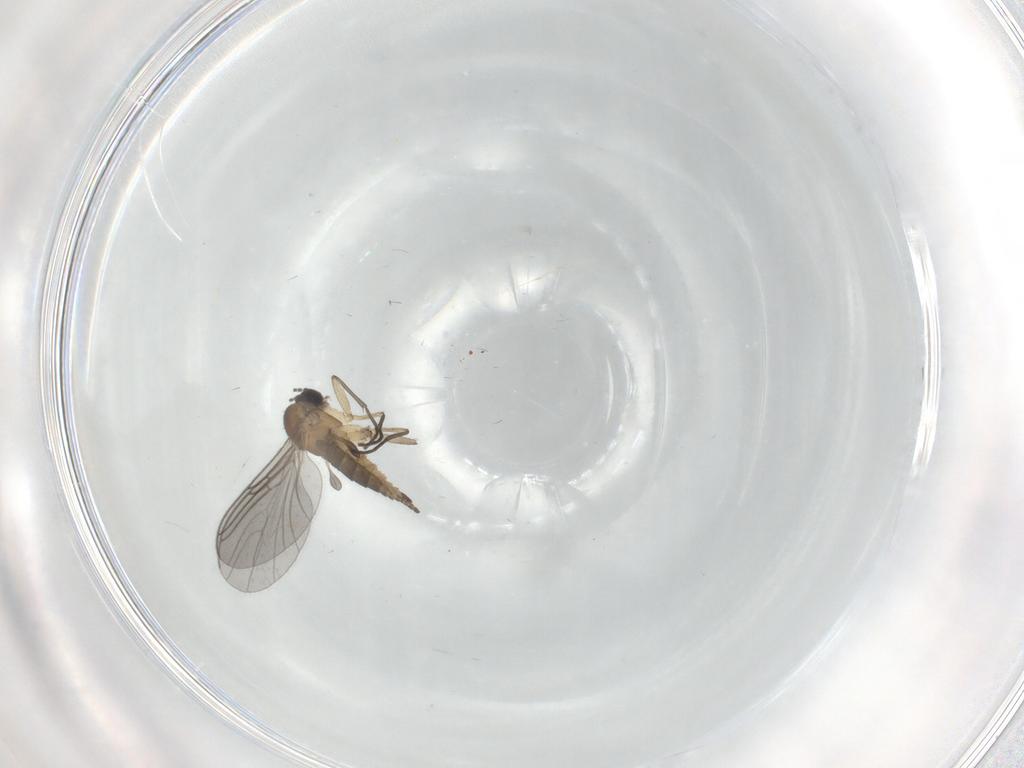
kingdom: Animalia
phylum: Arthropoda
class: Insecta
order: Diptera
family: Sciaridae
